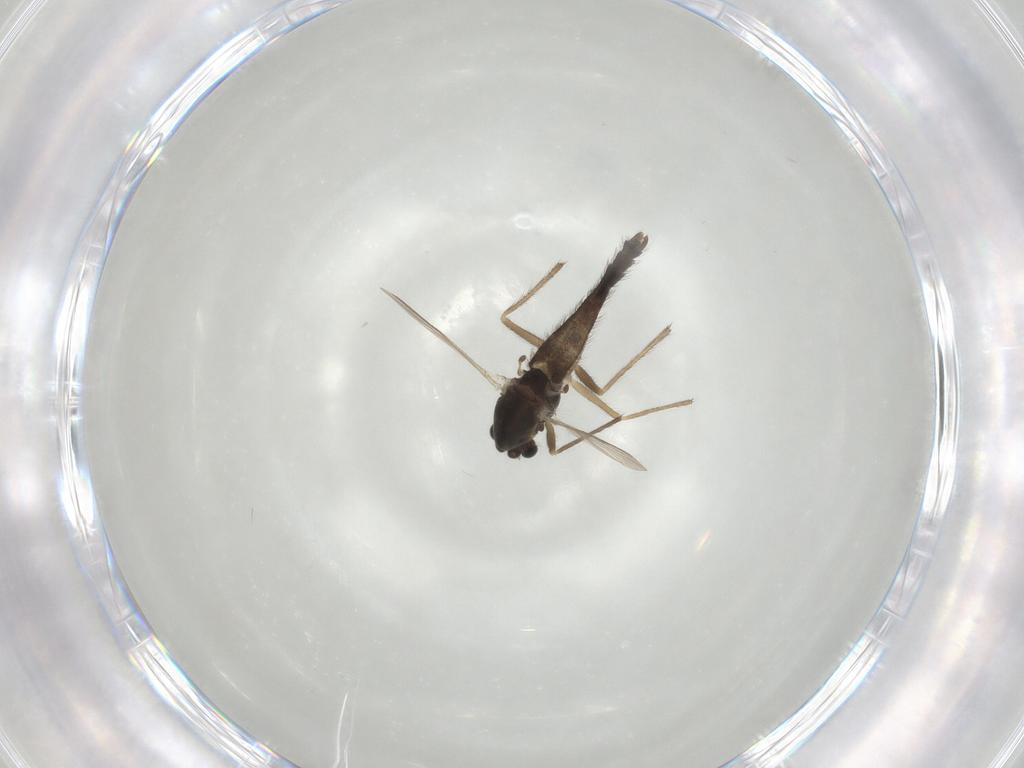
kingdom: Animalia
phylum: Arthropoda
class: Insecta
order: Diptera
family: Chironomidae
